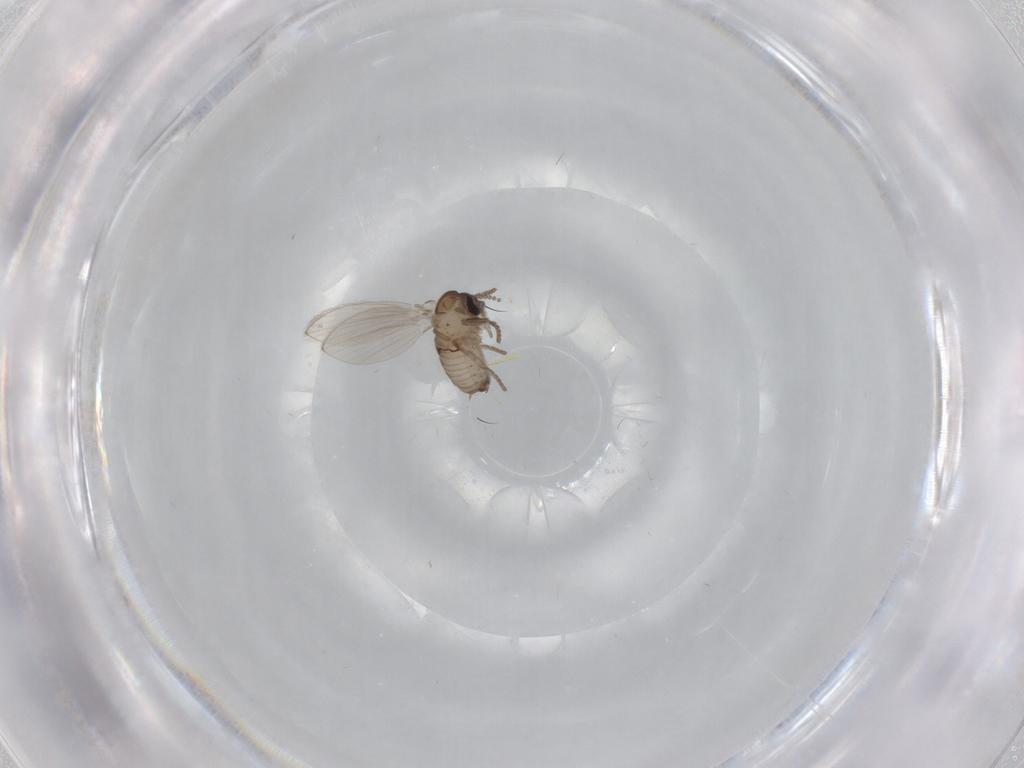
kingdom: Animalia
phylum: Arthropoda
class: Insecta
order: Diptera
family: Psychodidae
